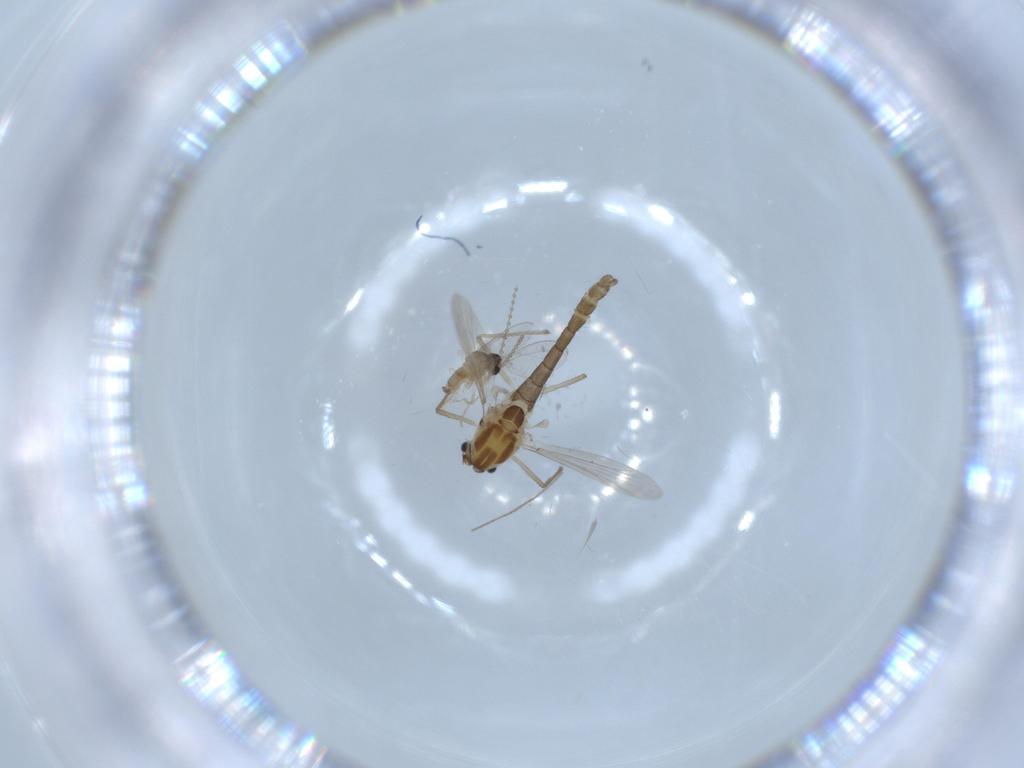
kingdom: Animalia
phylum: Arthropoda
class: Insecta
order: Diptera
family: Chironomidae
